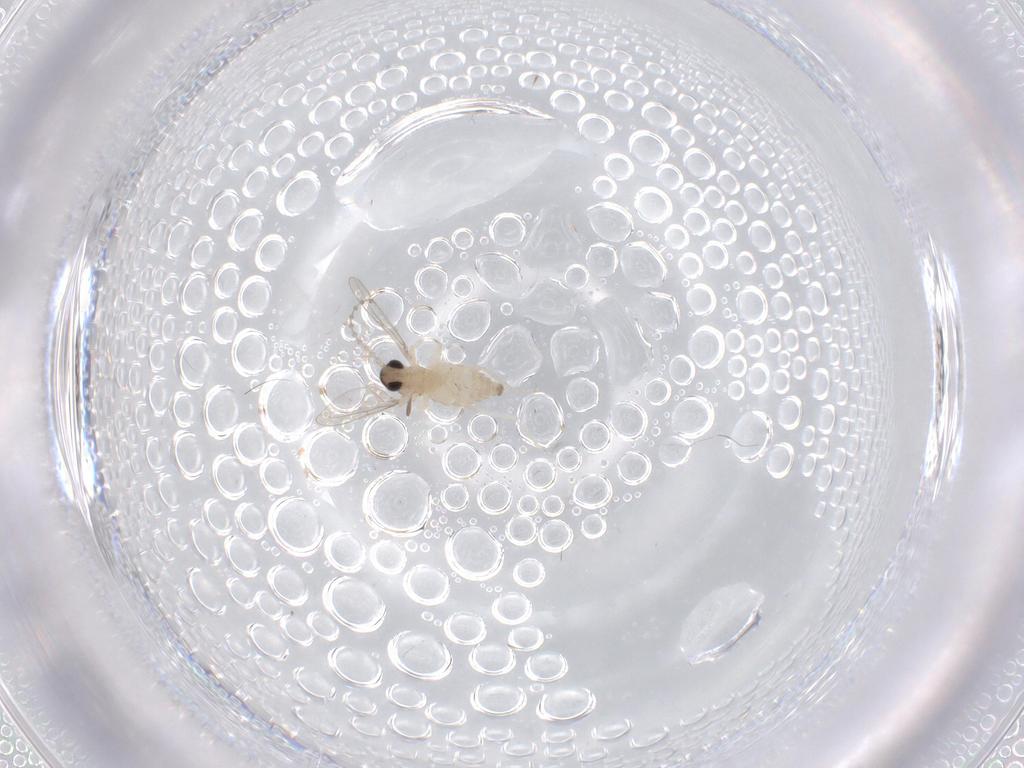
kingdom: Animalia
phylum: Arthropoda
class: Insecta
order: Diptera
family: Cecidomyiidae
